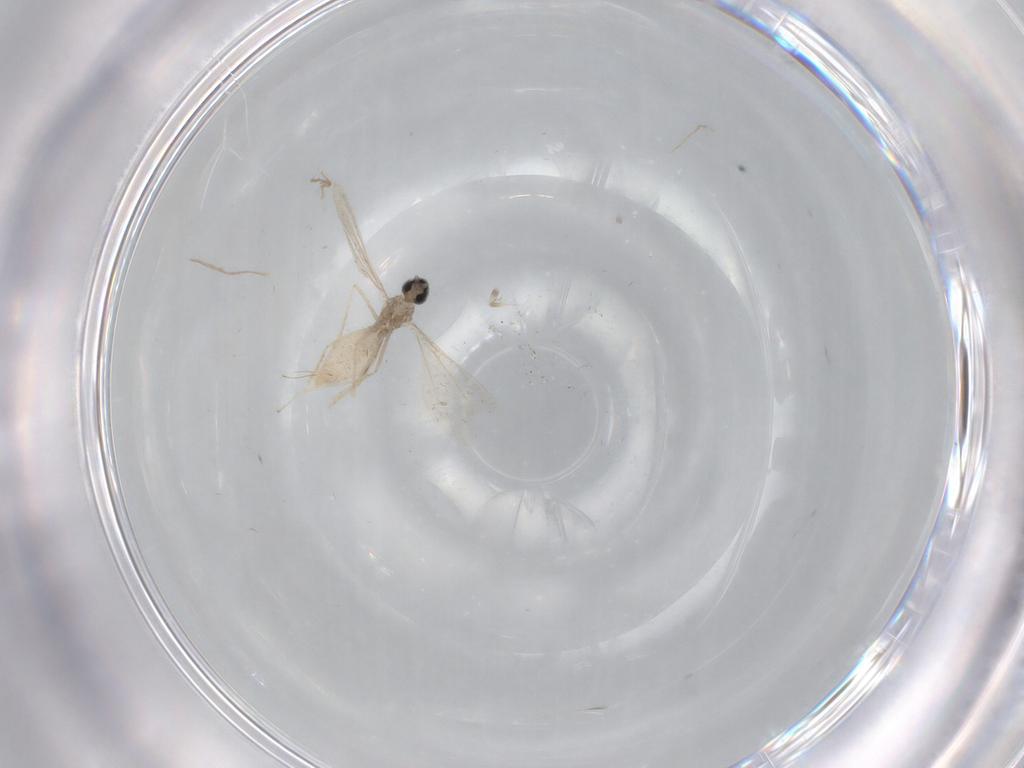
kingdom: Animalia
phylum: Arthropoda
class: Insecta
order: Diptera
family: Cecidomyiidae
